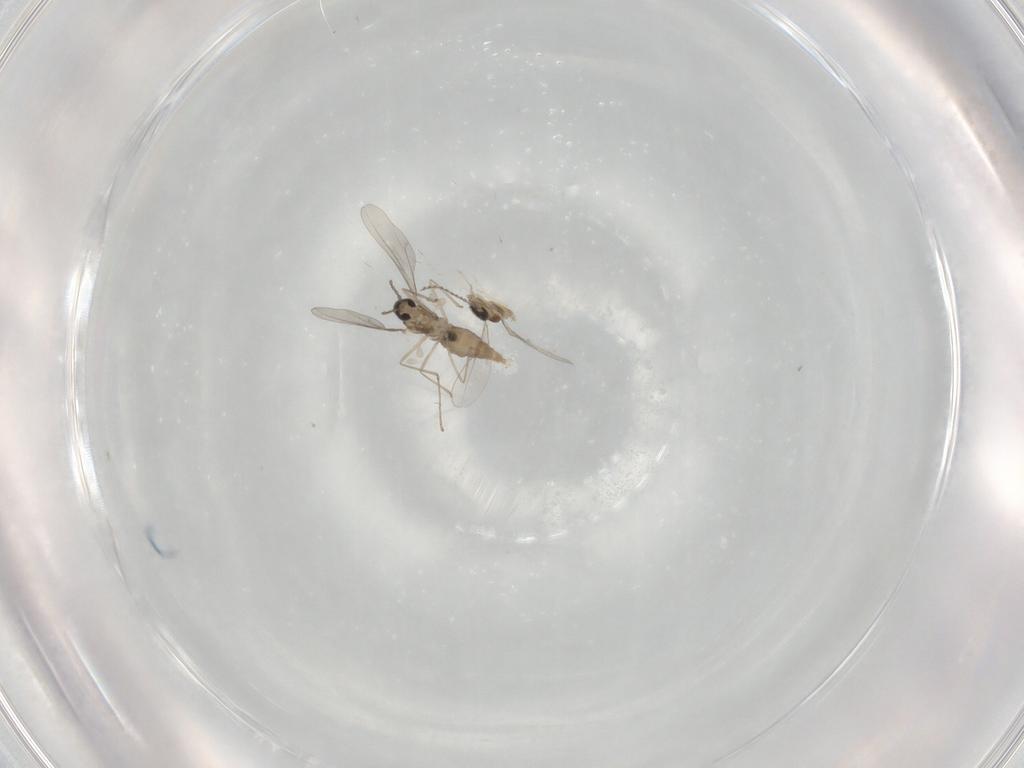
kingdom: Animalia
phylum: Arthropoda
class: Insecta
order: Diptera
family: Cecidomyiidae
